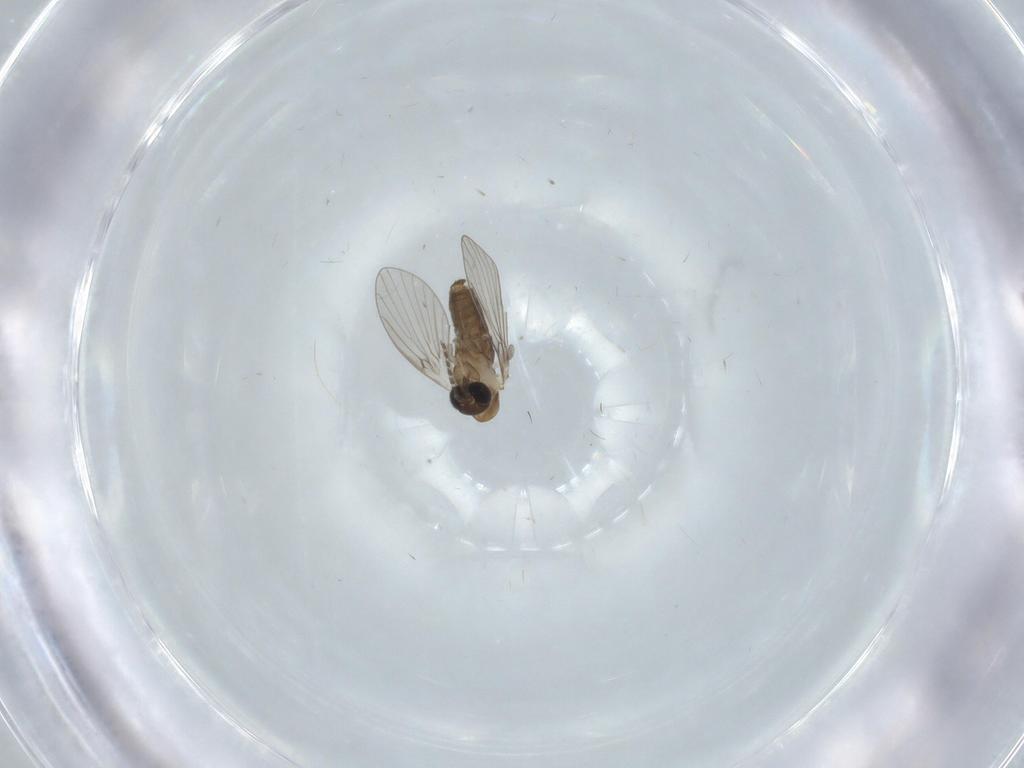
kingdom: Animalia
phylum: Arthropoda
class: Insecta
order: Diptera
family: Psychodidae
